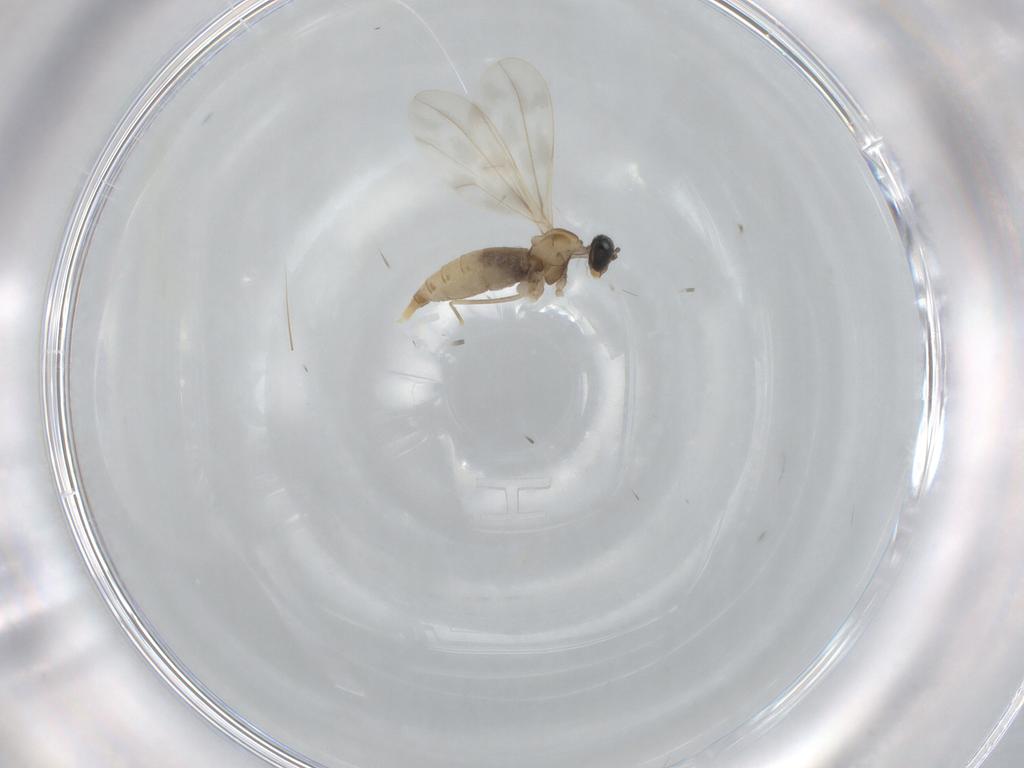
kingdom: Animalia
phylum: Arthropoda
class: Insecta
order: Diptera
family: Cecidomyiidae
